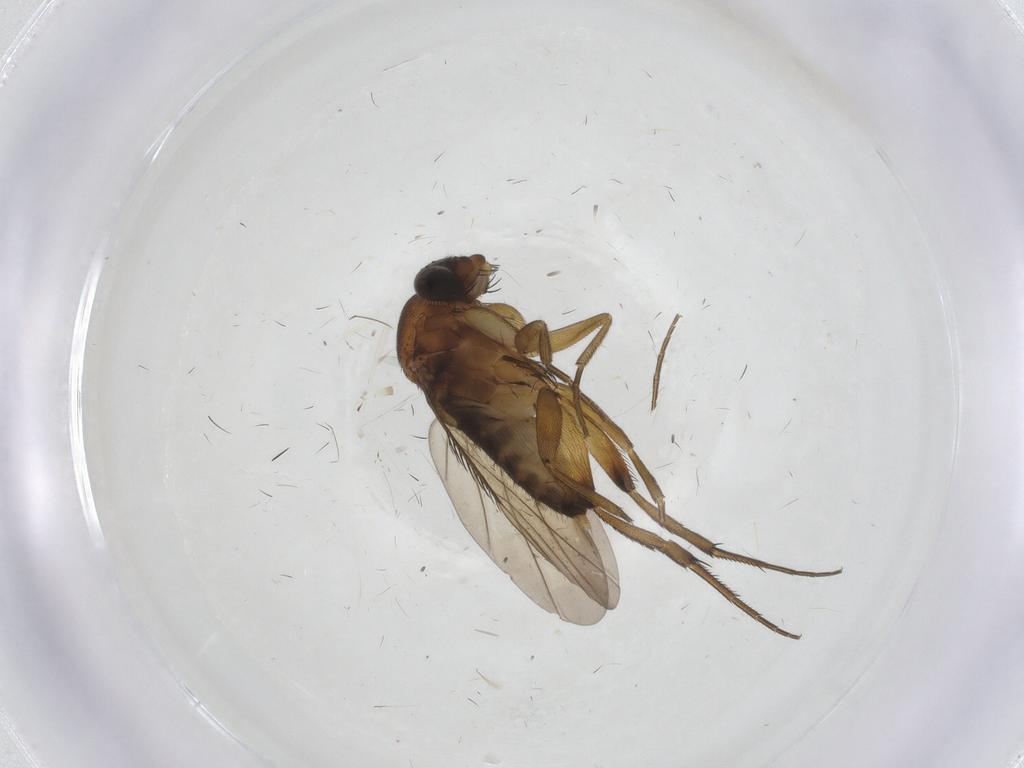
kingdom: Animalia
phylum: Arthropoda
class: Insecta
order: Diptera
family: Phoridae
